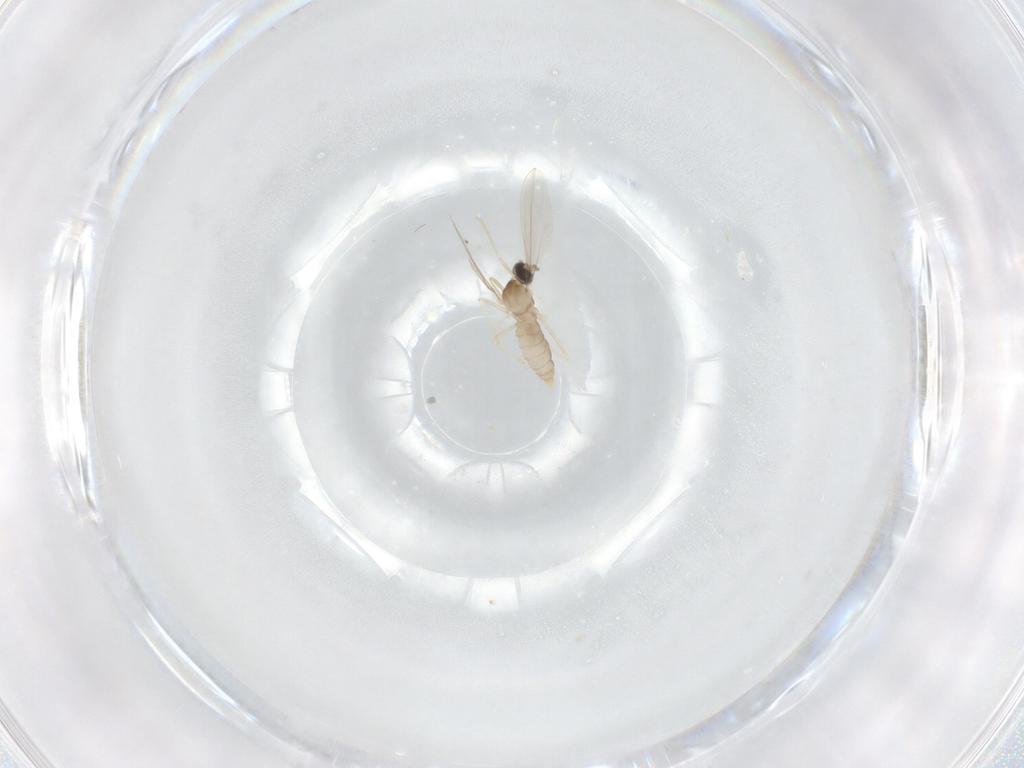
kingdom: Animalia
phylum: Arthropoda
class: Insecta
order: Diptera
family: Cecidomyiidae
